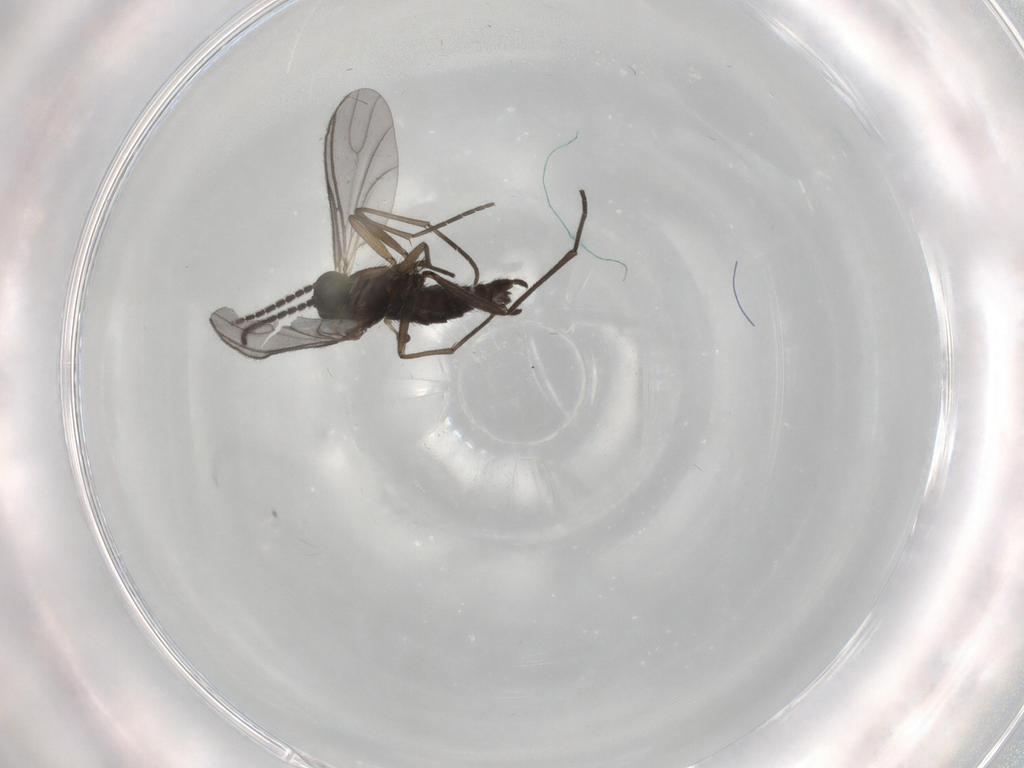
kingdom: Animalia
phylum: Arthropoda
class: Insecta
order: Diptera
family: Sciaridae
